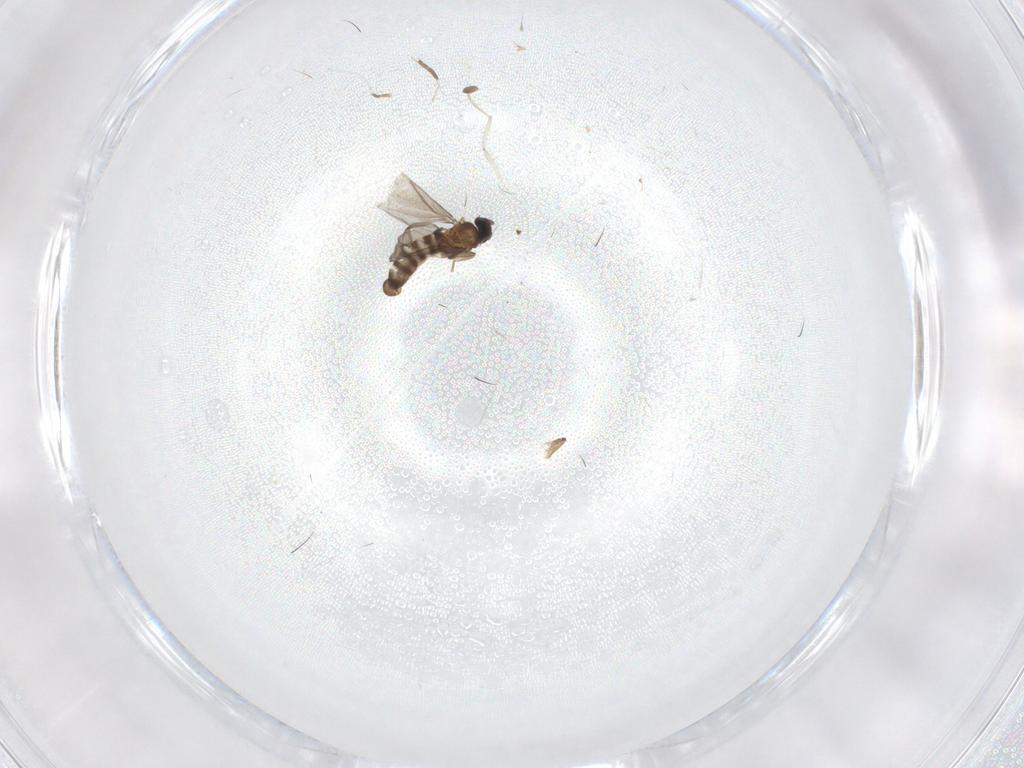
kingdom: Animalia
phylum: Arthropoda
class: Insecta
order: Diptera
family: Cecidomyiidae
